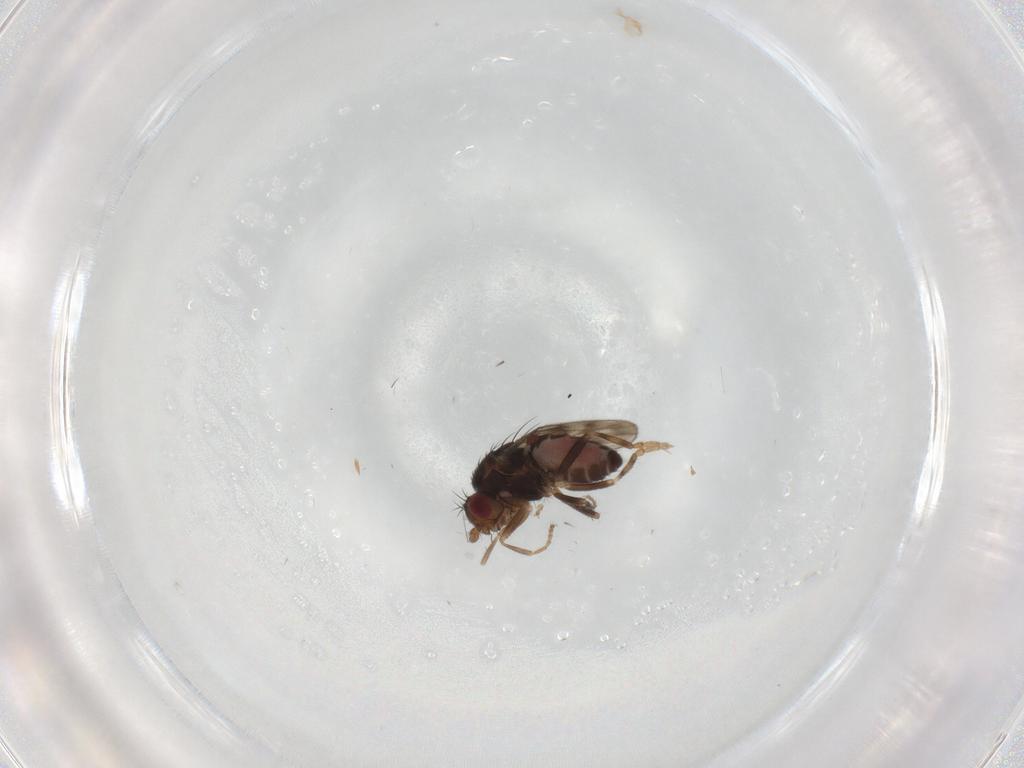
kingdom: Animalia
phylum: Arthropoda
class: Insecta
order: Diptera
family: Sphaeroceridae
